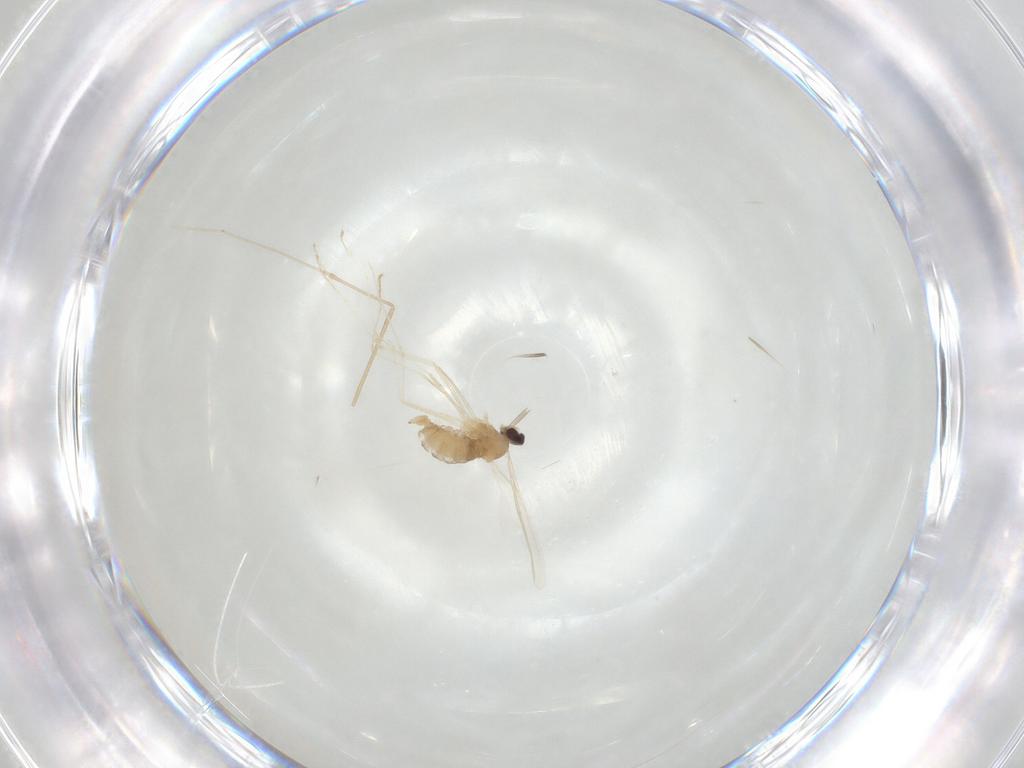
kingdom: Animalia
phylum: Arthropoda
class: Insecta
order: Diptera
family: Cecidomyiidae
